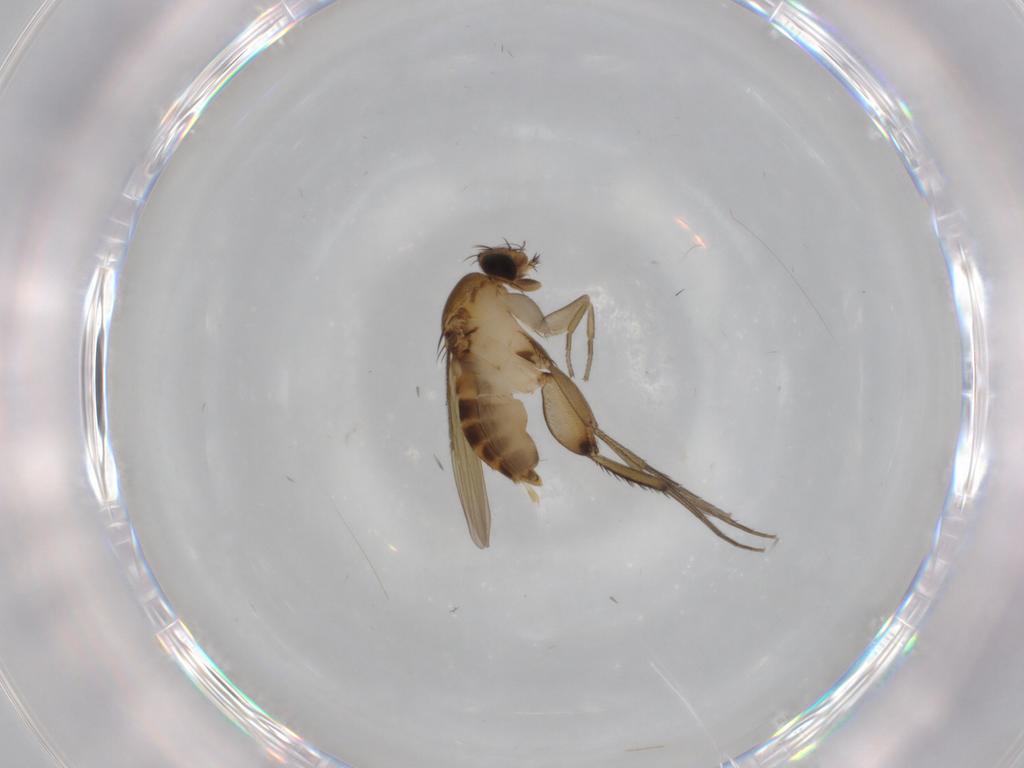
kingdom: Animalia
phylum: Arthropoda
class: Insecta
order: Diptera
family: Phoridae
